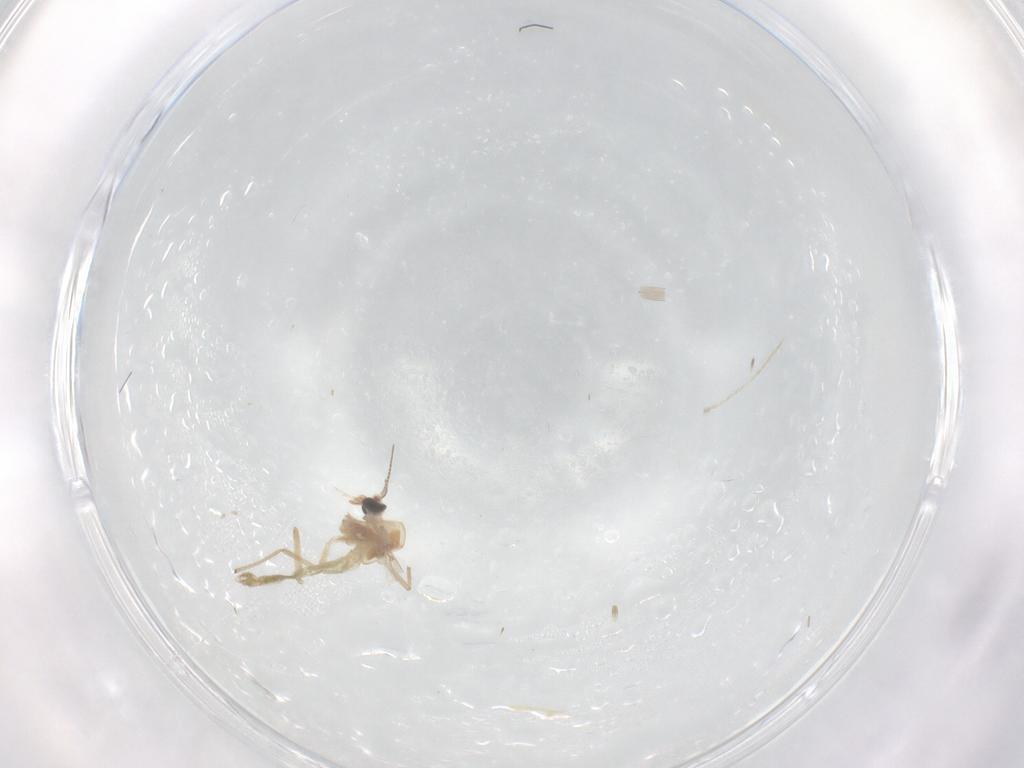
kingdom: Animalia
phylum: Arthropoda
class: Insecta
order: Diptera
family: Chironomidae
